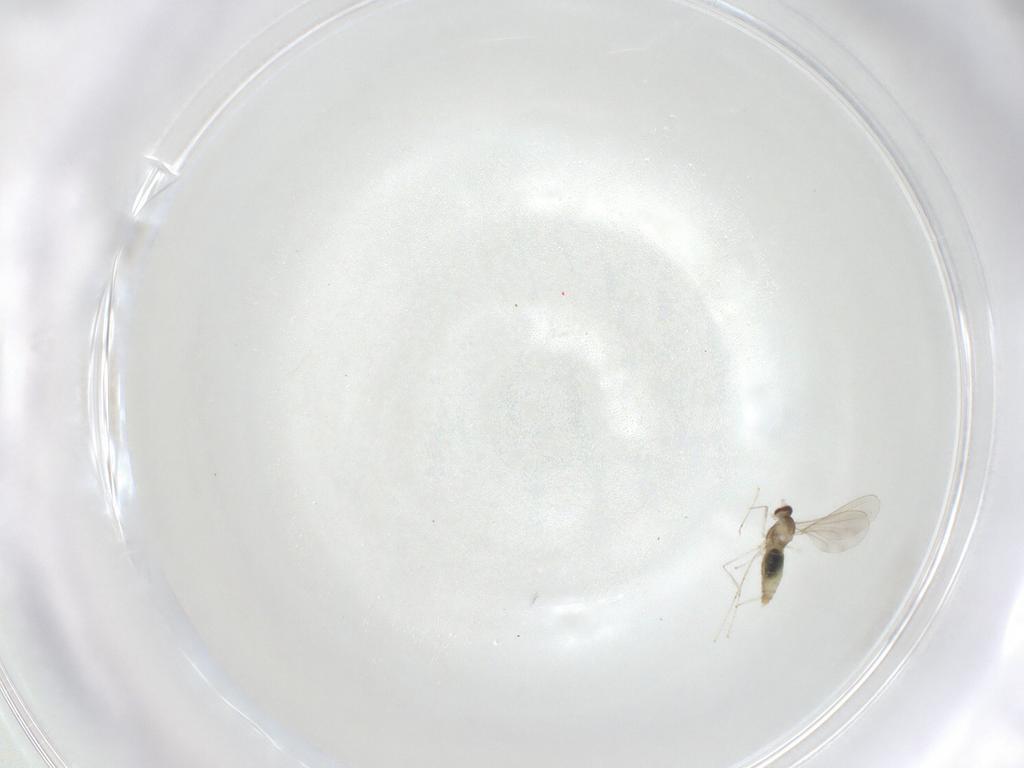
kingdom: Animalia
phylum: Arthropoda
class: Insecta
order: Diptera
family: Cecidomyiidae
